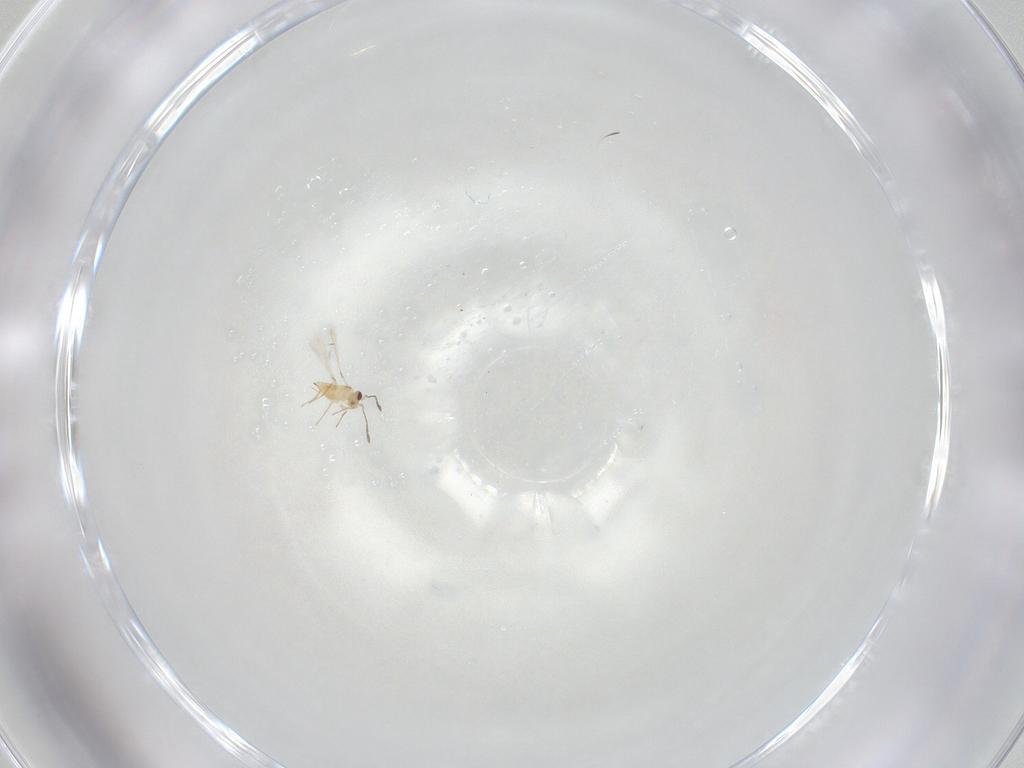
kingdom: Animalia
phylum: Arthropoda
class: Insecta
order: Hymenoptera
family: Mymaridae
